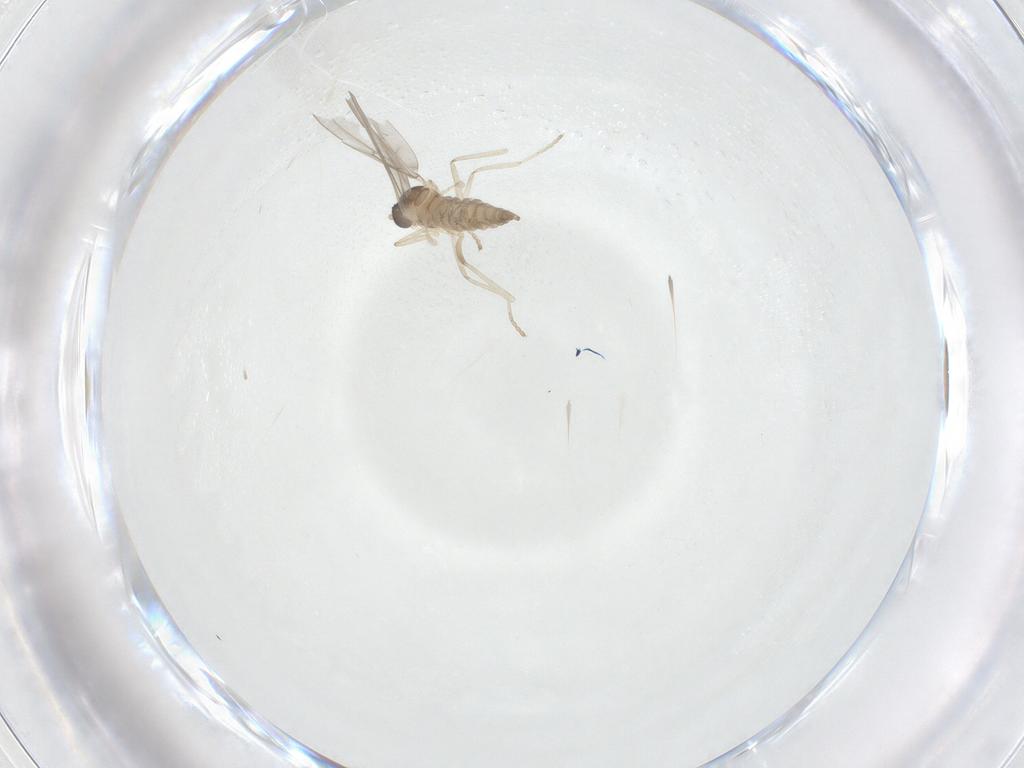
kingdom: Animalia
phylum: Arthropoda
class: Insecta
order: Diptera
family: Cecidomyiidae
